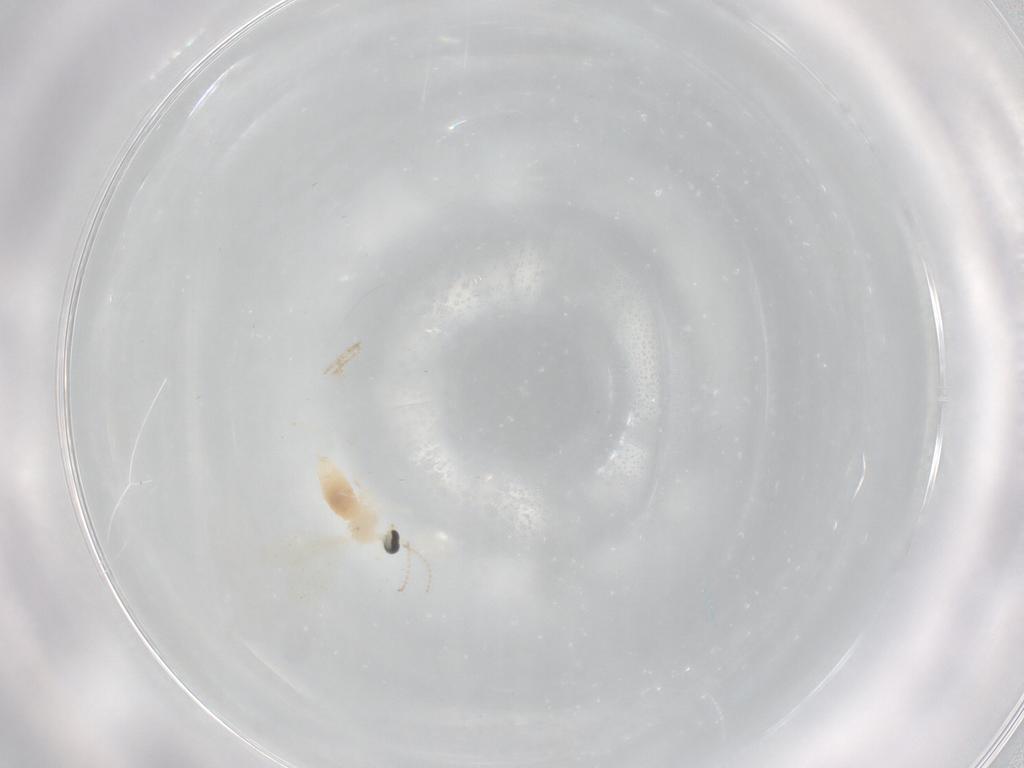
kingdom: Animalia
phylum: Arthropoda
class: Insecta
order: Diptera
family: Cecidomyiidae
